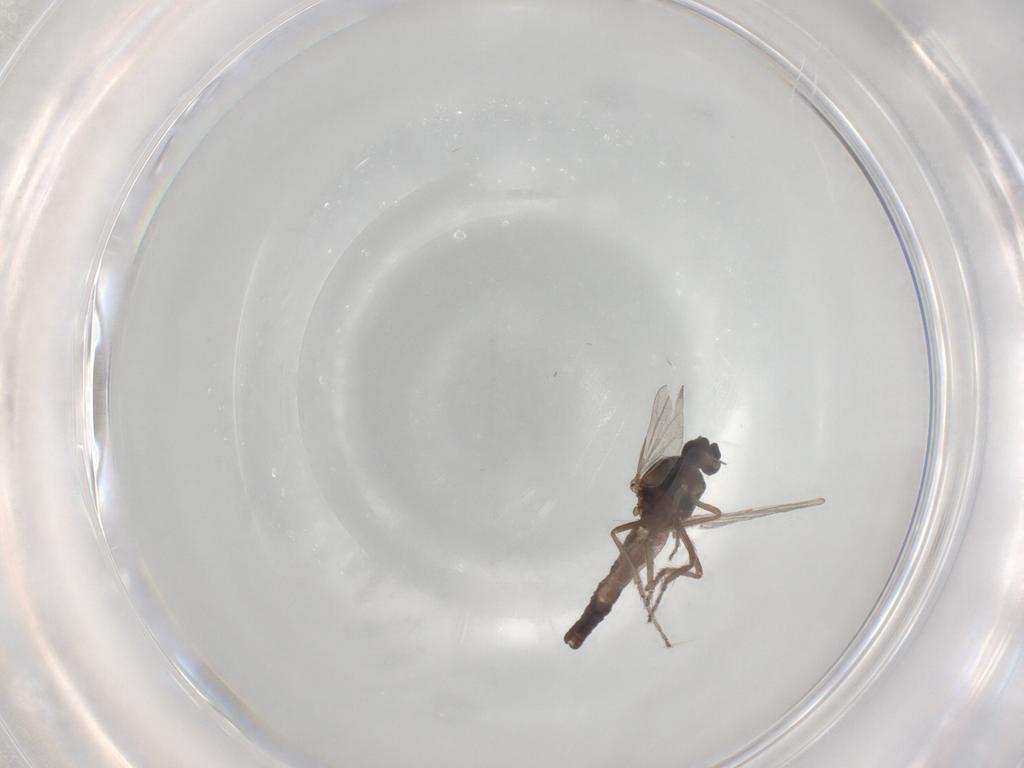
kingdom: Animalia
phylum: Arthropoda
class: Insecta
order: Diptera
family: Ceratopogonidae
